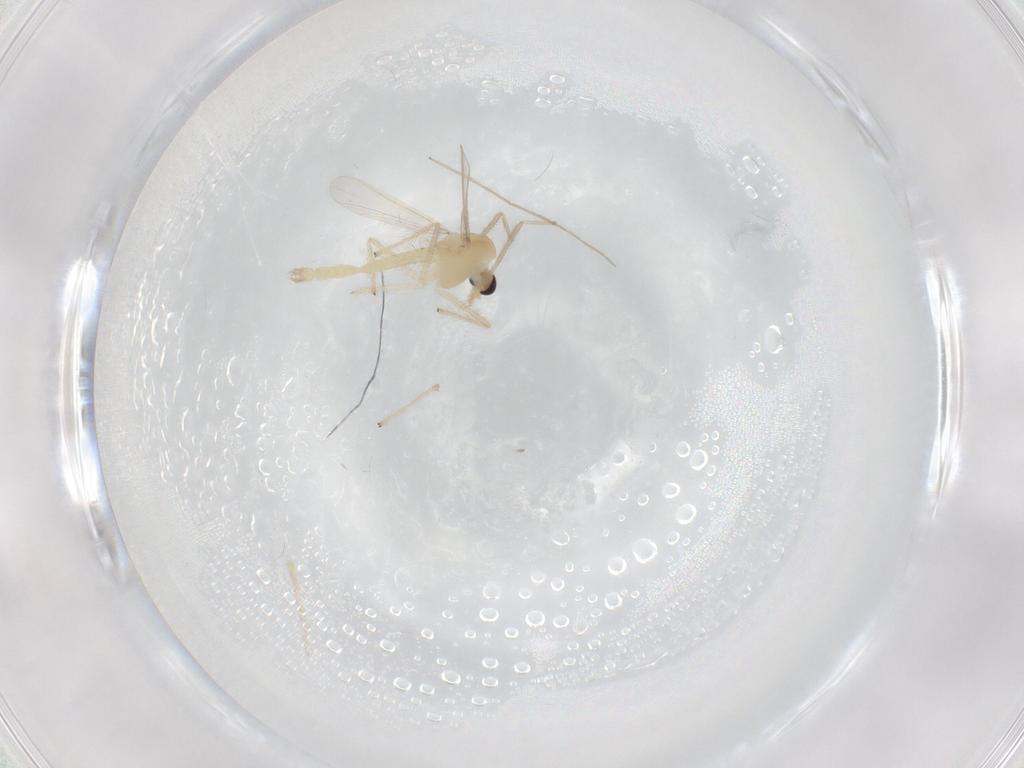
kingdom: Animalia
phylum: Arthropoda
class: Insecta
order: Diptera
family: Chironomidae
